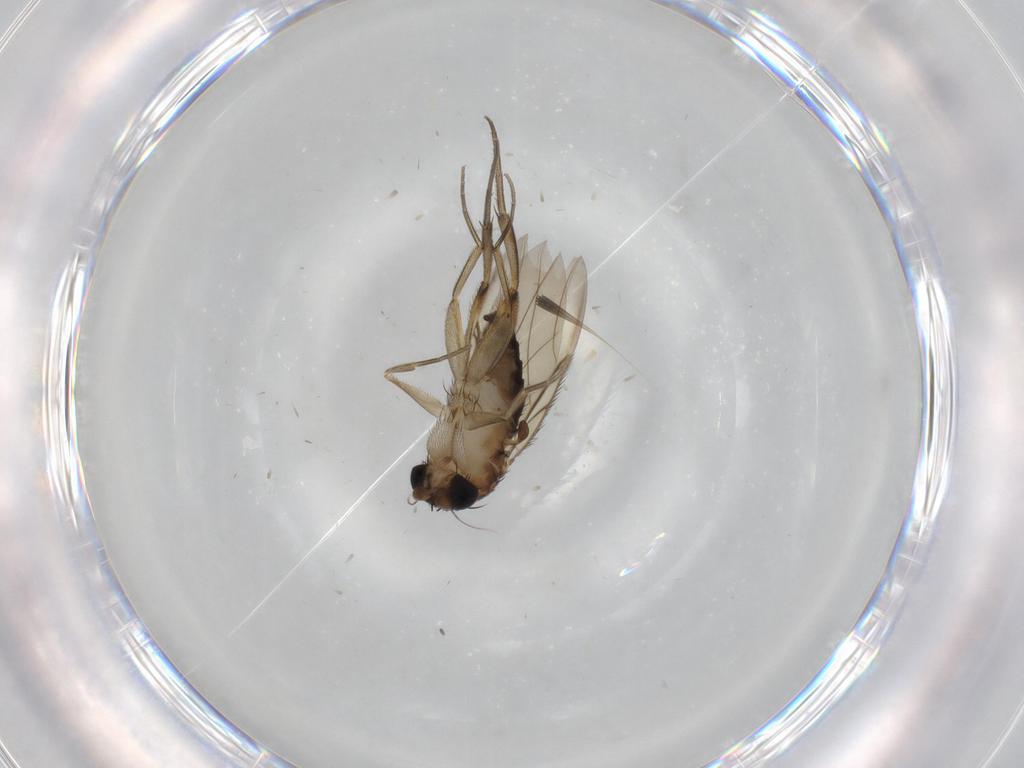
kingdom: Animalia
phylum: Arthropoda
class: Insecta
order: Diptera
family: Phoridae
